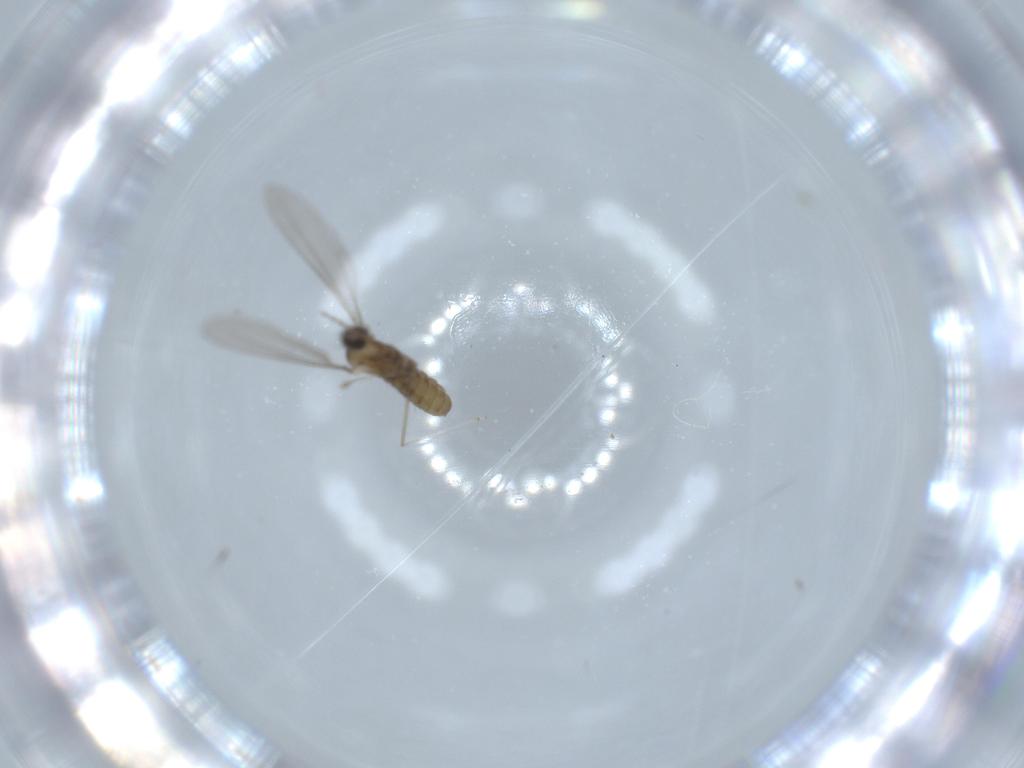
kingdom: Animalia
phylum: Arthropoda
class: Insecta
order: Diptera
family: Cecidomyiidae
